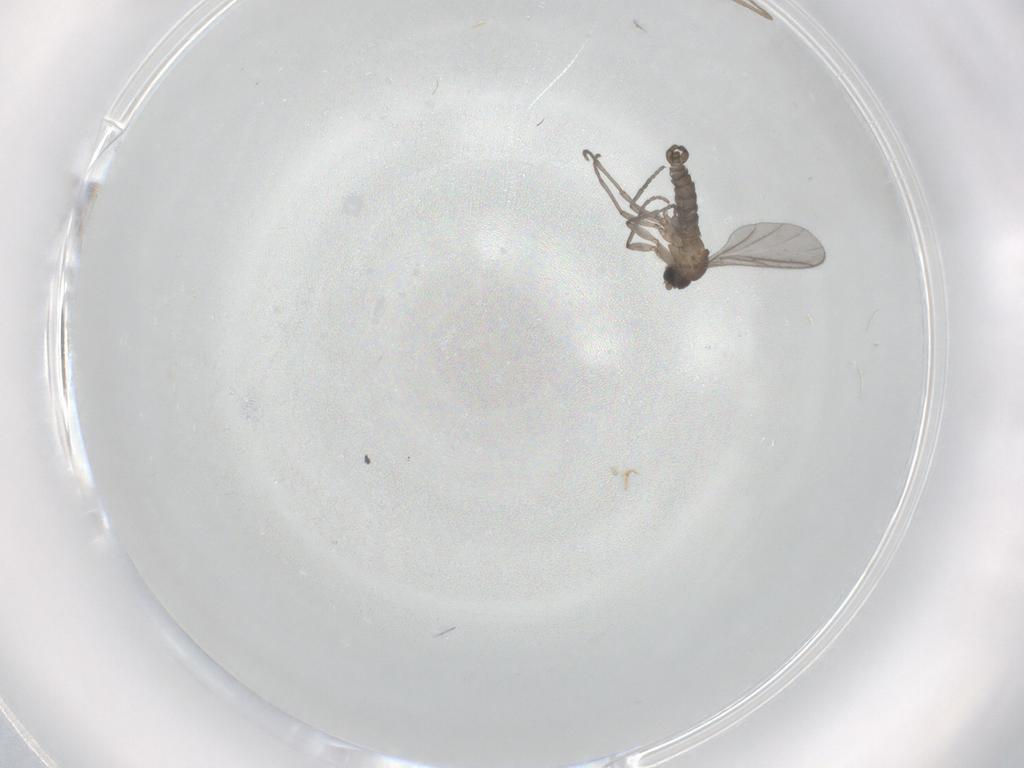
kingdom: Animalia
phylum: Arthropoda
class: Insecta
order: Diptera
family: Sciaridae
